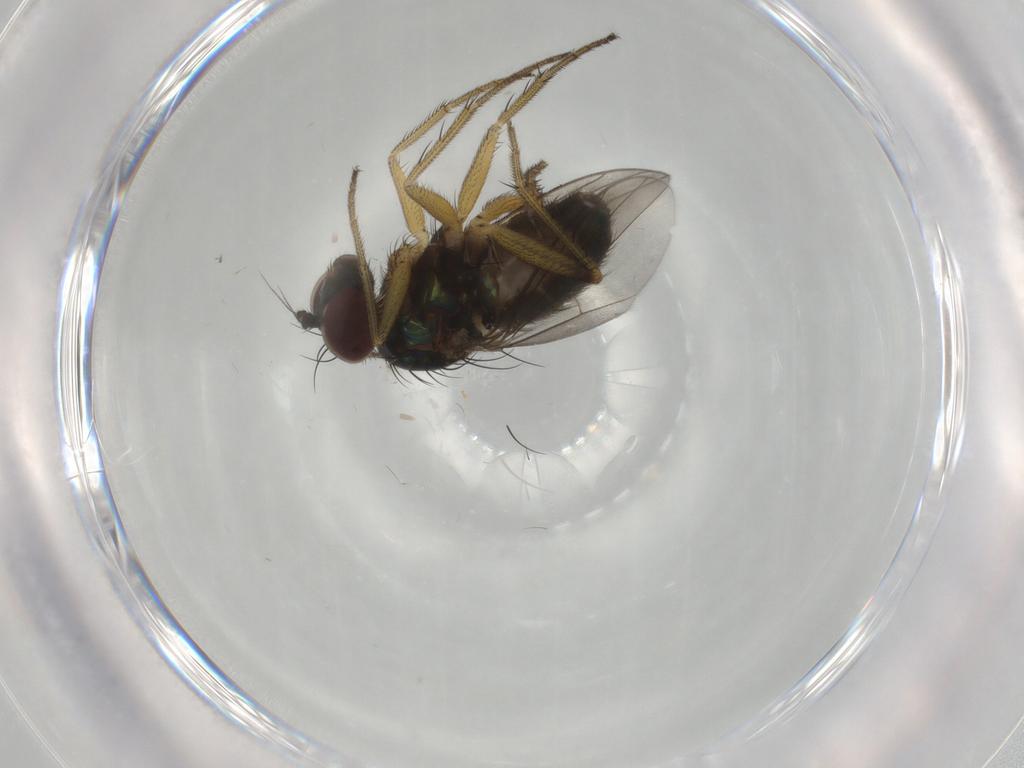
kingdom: Animalia
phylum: Arthropoda
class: Insecta
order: Diptera
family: Dolichopodidae
